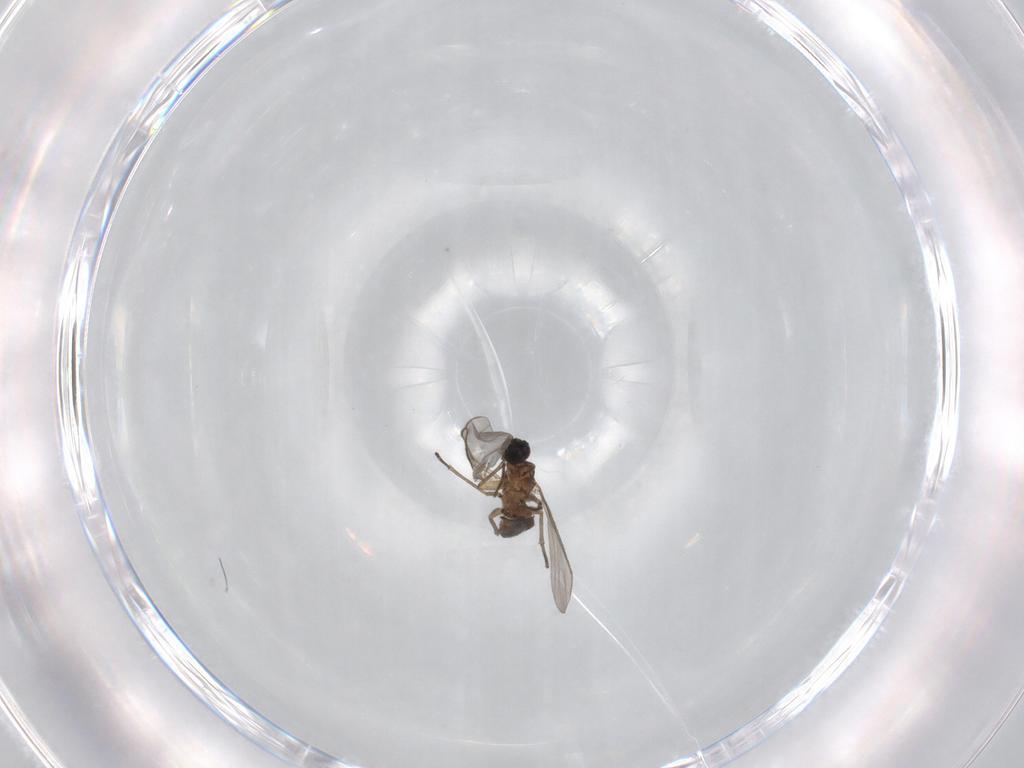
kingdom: Animalia
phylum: Arthropoda
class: Insecta
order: Diptera
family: Sciaridae
